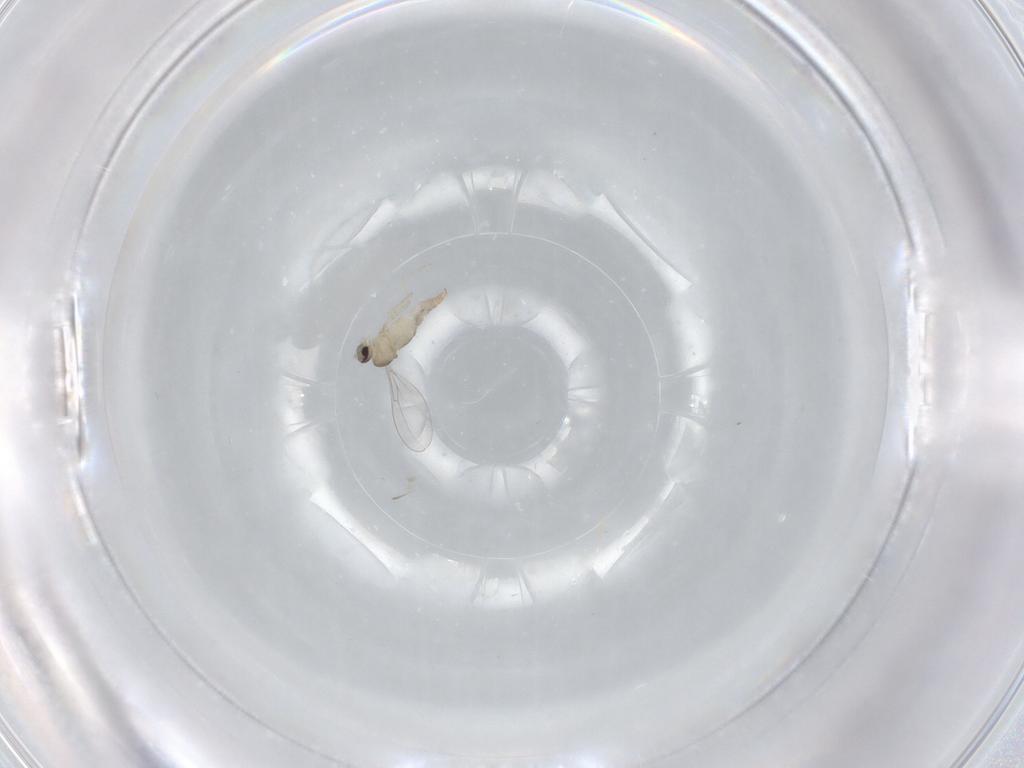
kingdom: Animalia
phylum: Arthropoda
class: Insecta
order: Diptera
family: Cecidomyiidae
